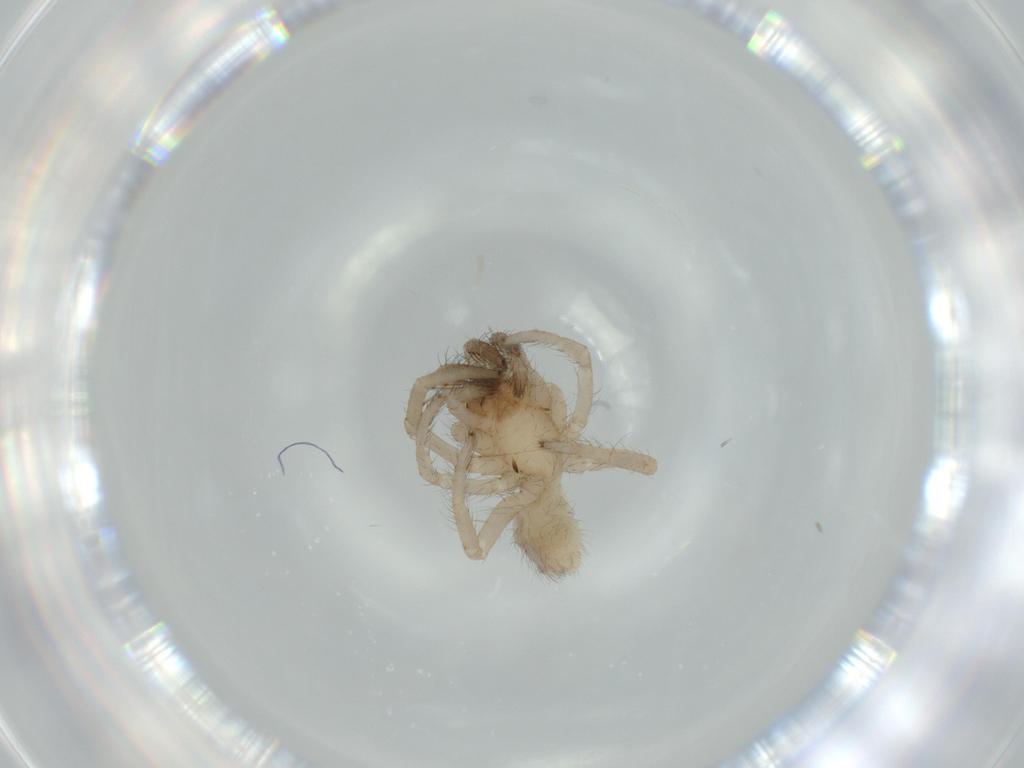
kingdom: Animalia
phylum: Arthropoda
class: Arachnida
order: Araneae
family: Segestriidae
